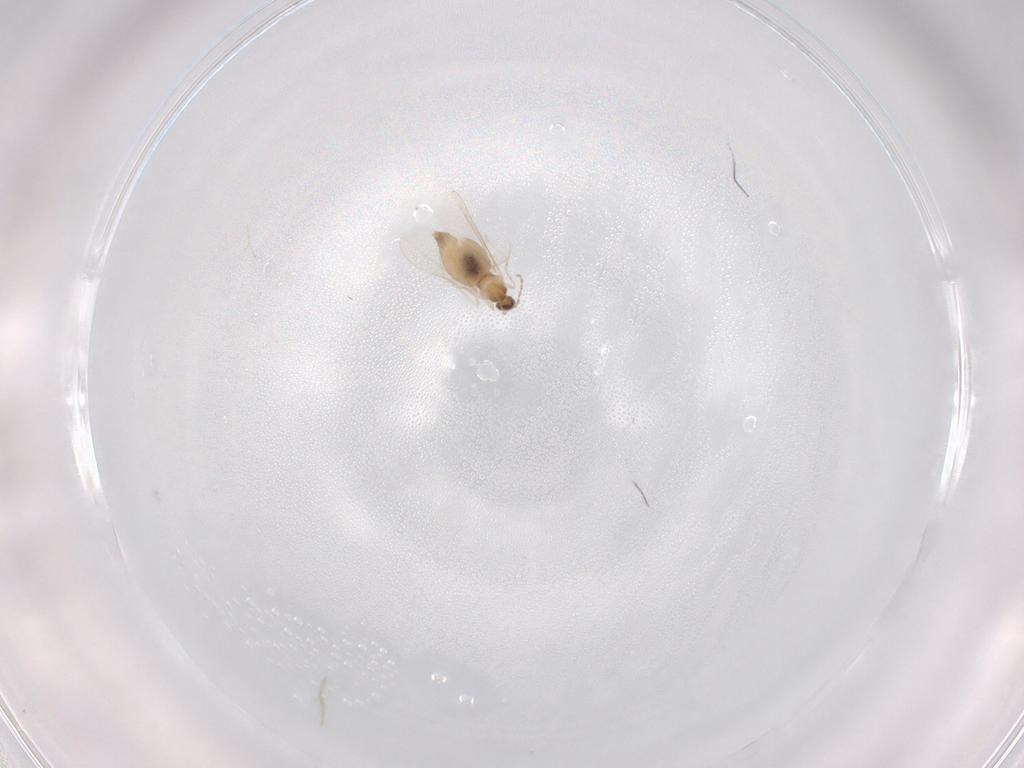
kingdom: Animalia
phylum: Arthropoda
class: Insecta
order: Diptera
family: Cecidomyiidae
